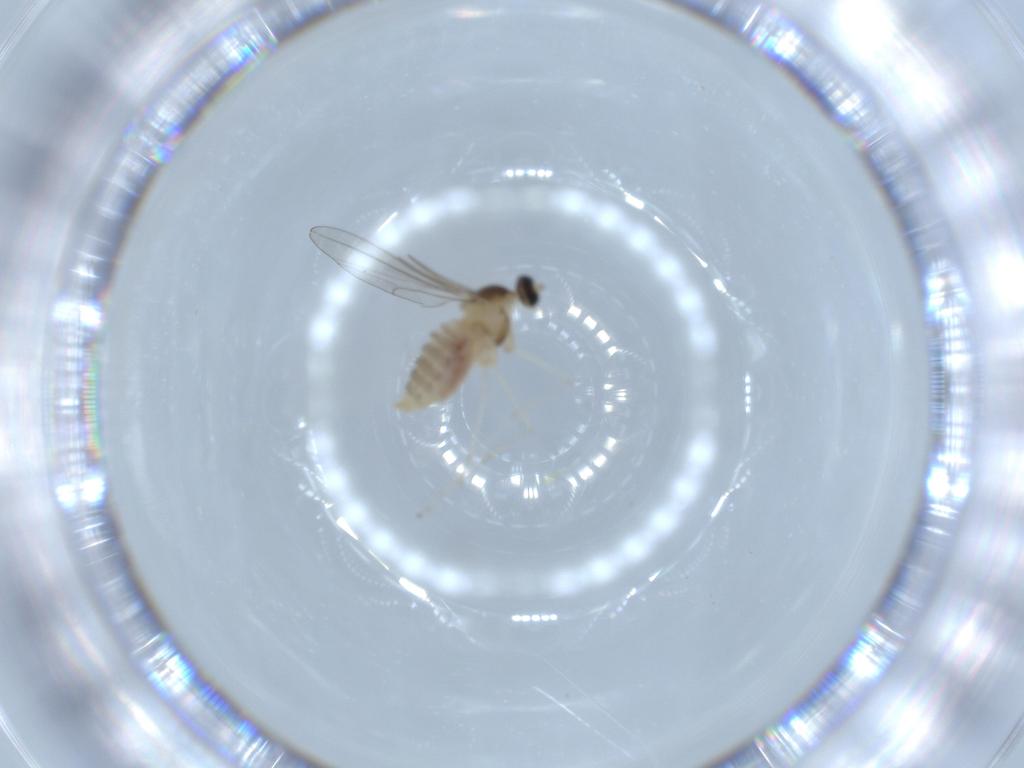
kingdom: Animalia
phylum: Arthropoda
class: Insecta
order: Diptera
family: Cecidomyiidae
